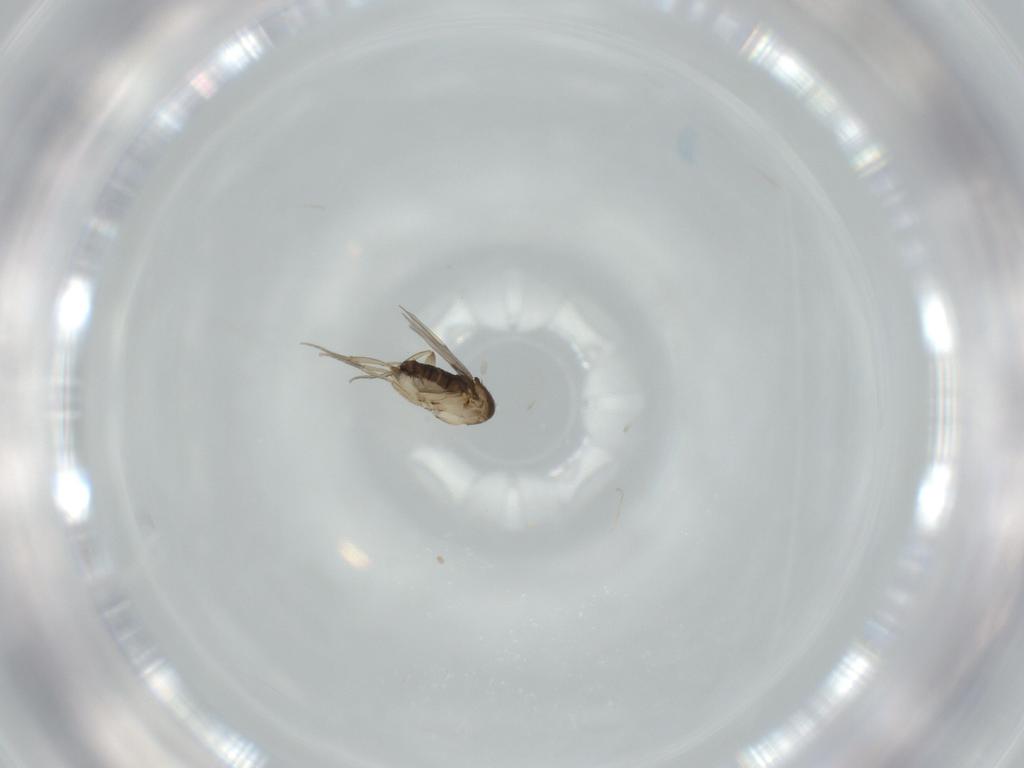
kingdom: Animalia
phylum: Arthropoda
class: Insecta
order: Diptera
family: Phoridae
